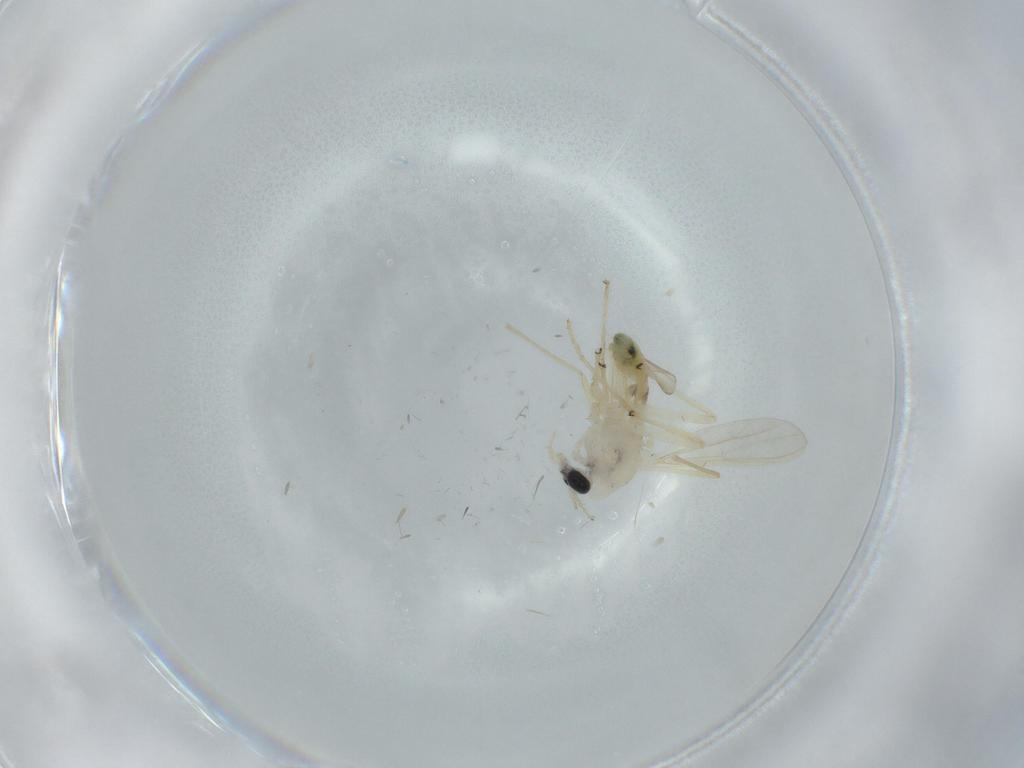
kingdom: Animalia
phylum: Arthropoda
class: Insecta
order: Diptera
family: Chironomidae
